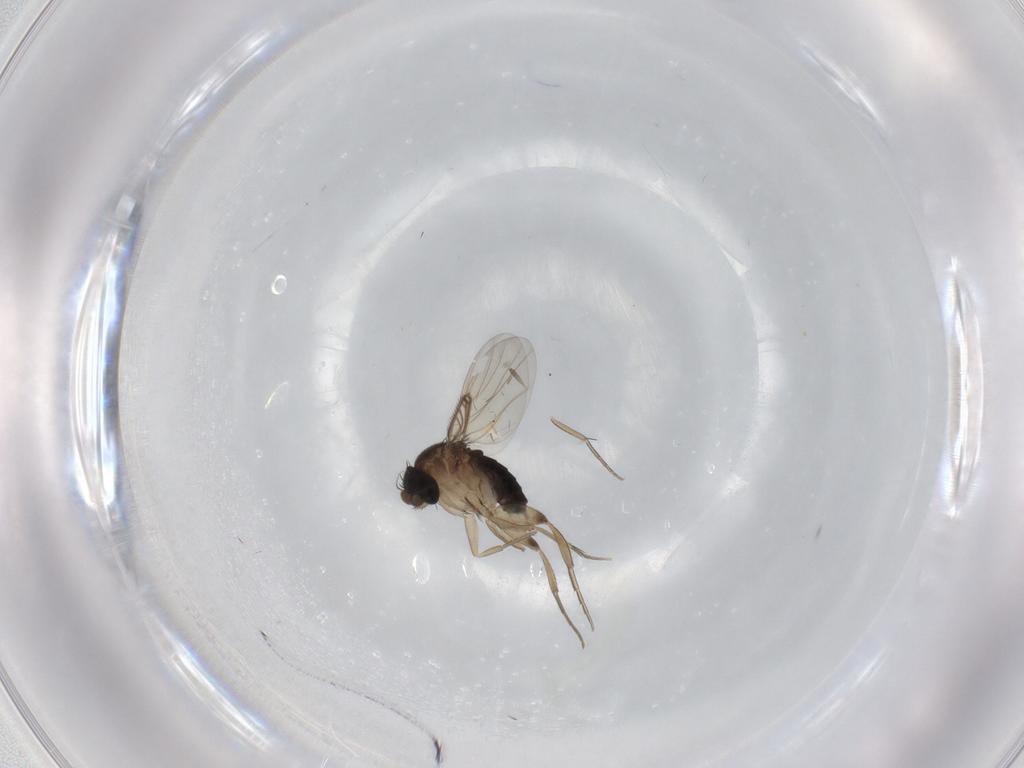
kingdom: Animalia
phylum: Arthropoda
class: Insecta
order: Diptera
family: Phoridae
